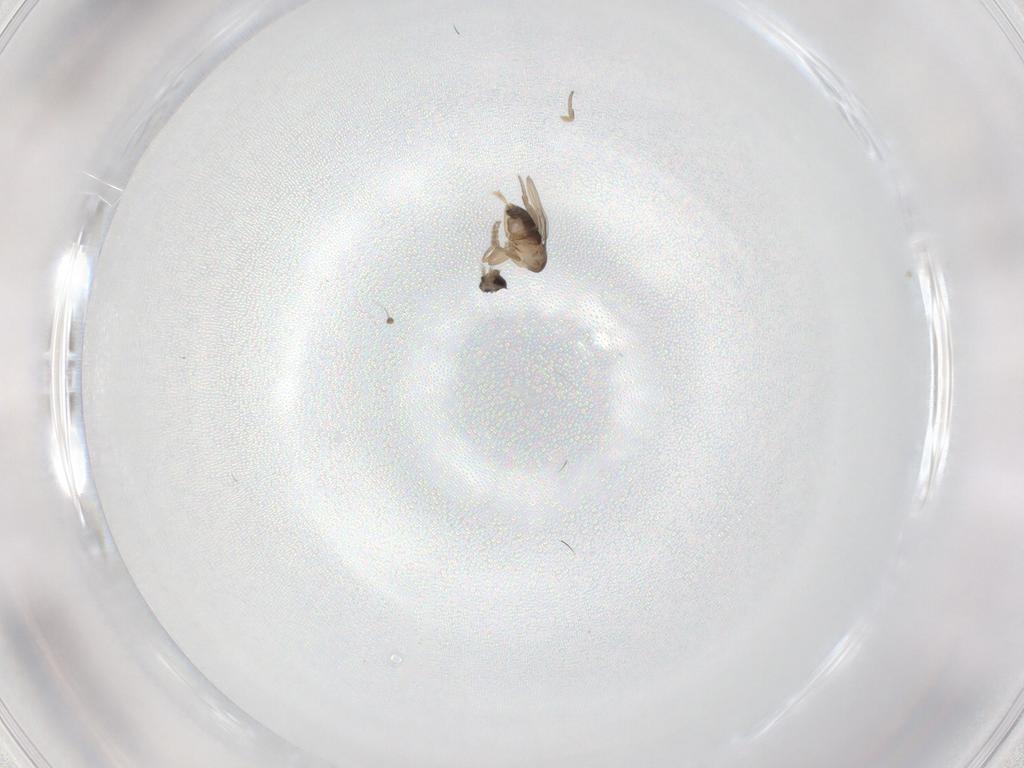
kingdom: Animalia
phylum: Arthropoda
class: Insecta
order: Diptera
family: Phoridae
